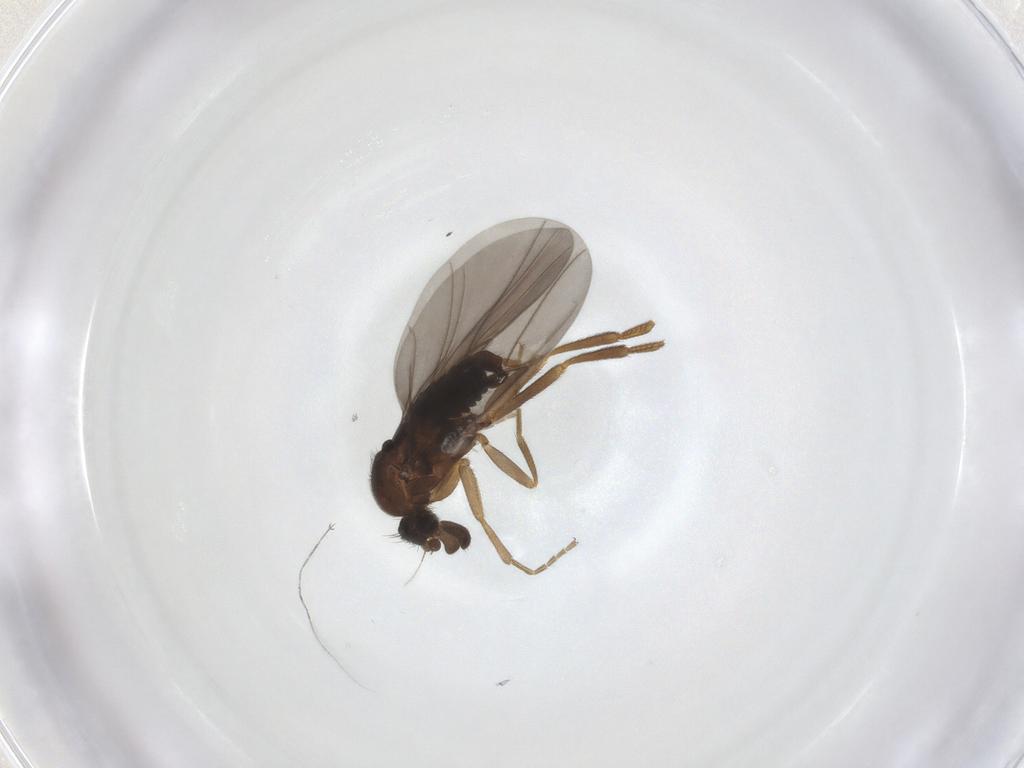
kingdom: Animalia
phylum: Arthropoda
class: Insecta
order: Diptera
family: Phoridae
